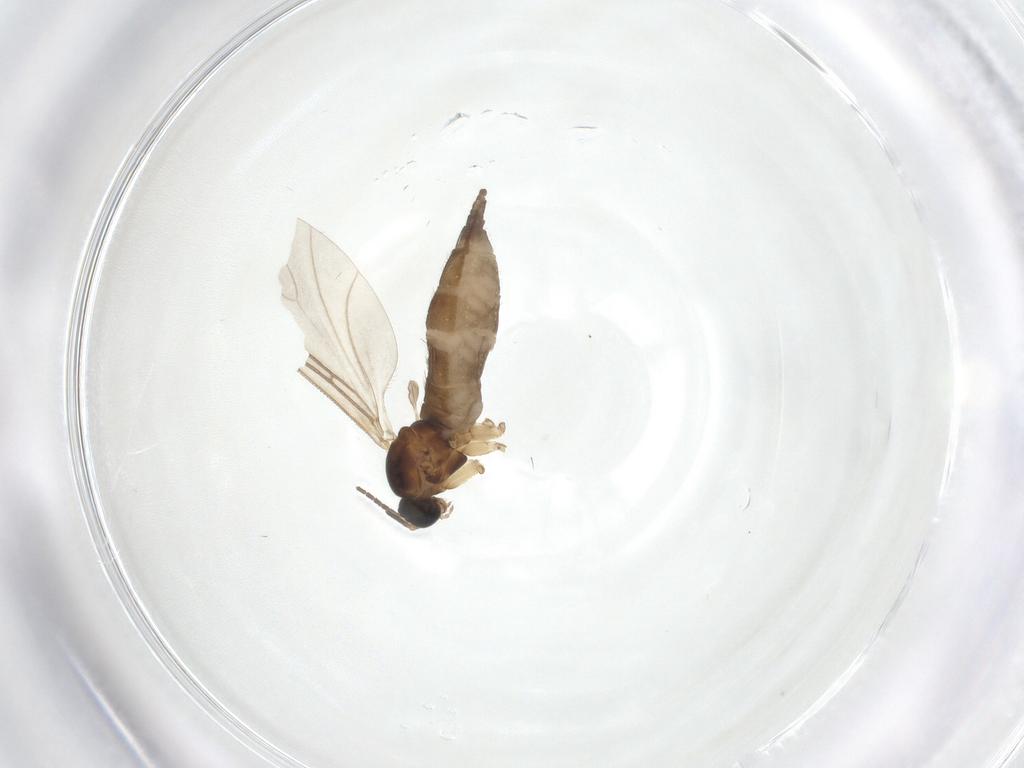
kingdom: Animalia
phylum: Arthropoda
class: Insecta
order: Diptera
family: Sciaridae
